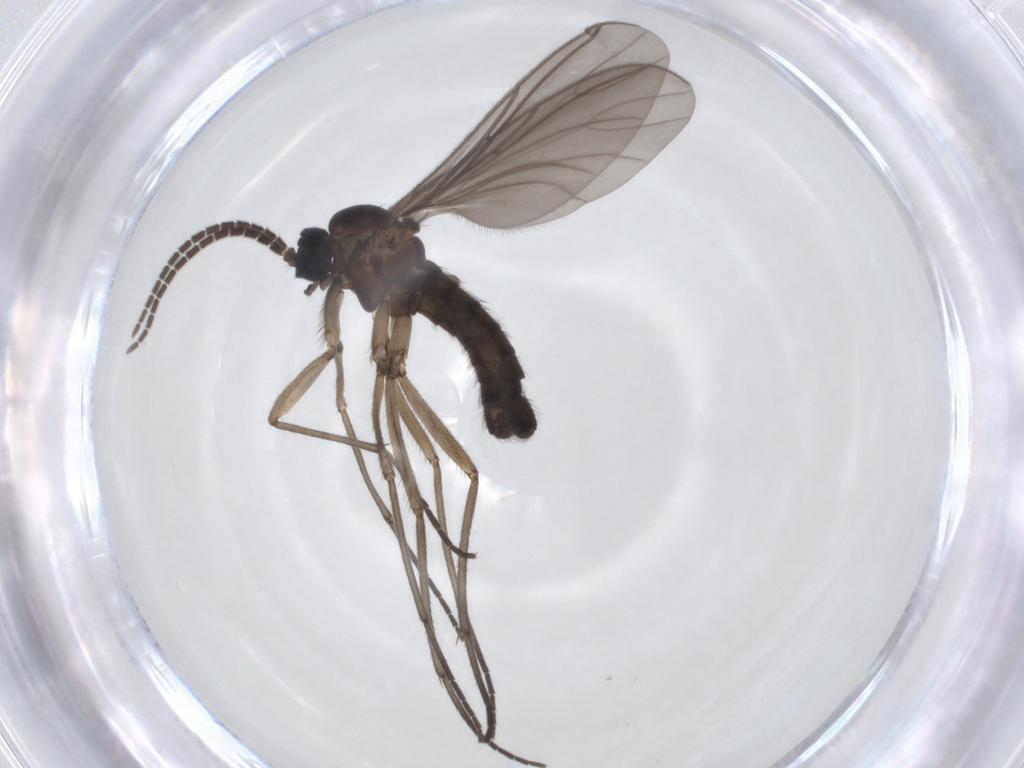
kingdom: Animalia
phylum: Arthropoda
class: Insecta
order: Diptera
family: Sciaridae
